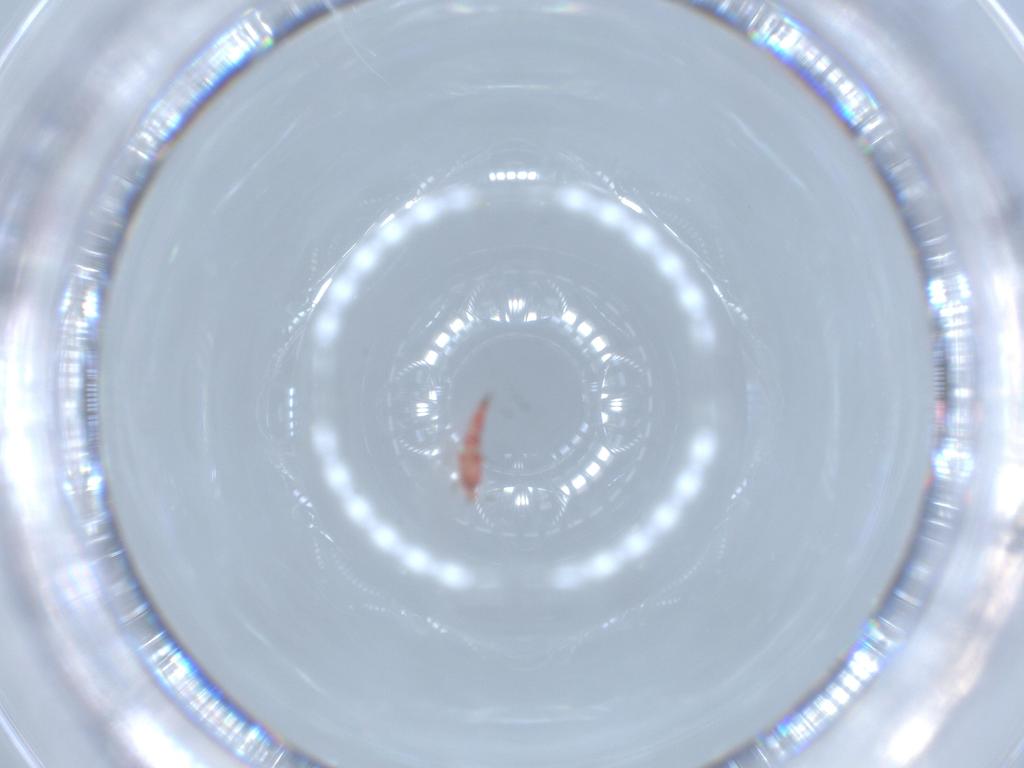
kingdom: Animalia
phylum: Arthropoda
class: Insecta
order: Thysanoptera
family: Phlaeothripidae
